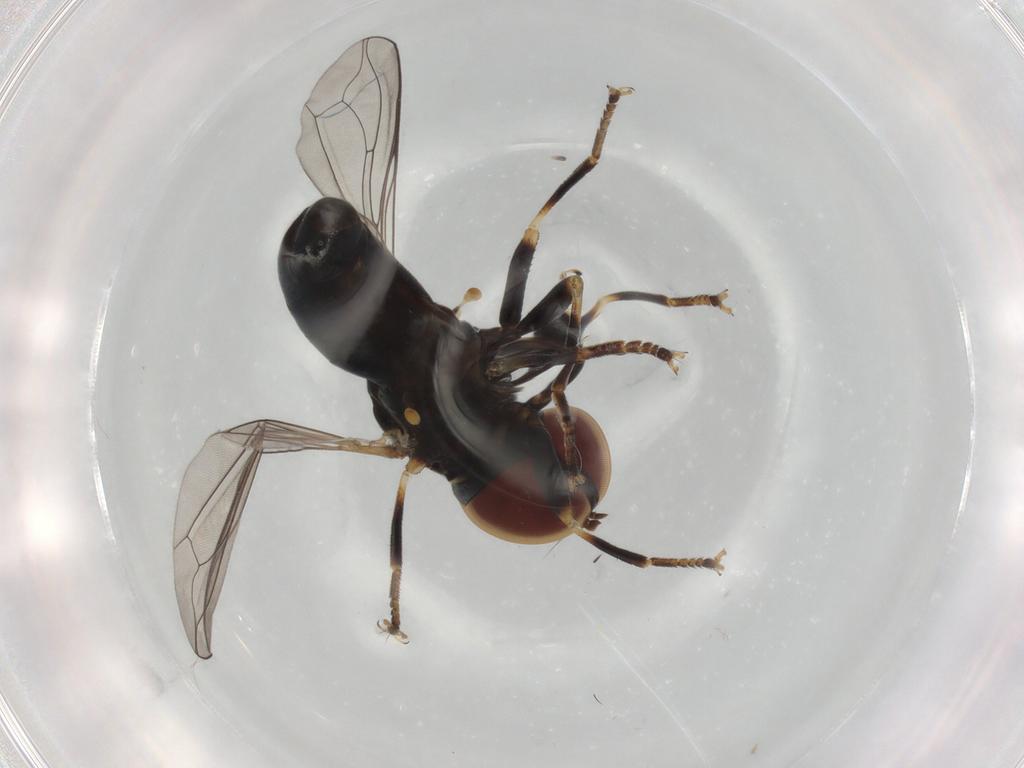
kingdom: Animalia
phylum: Arthropoda
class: Insecta
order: Diptera
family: Pipunculidae
